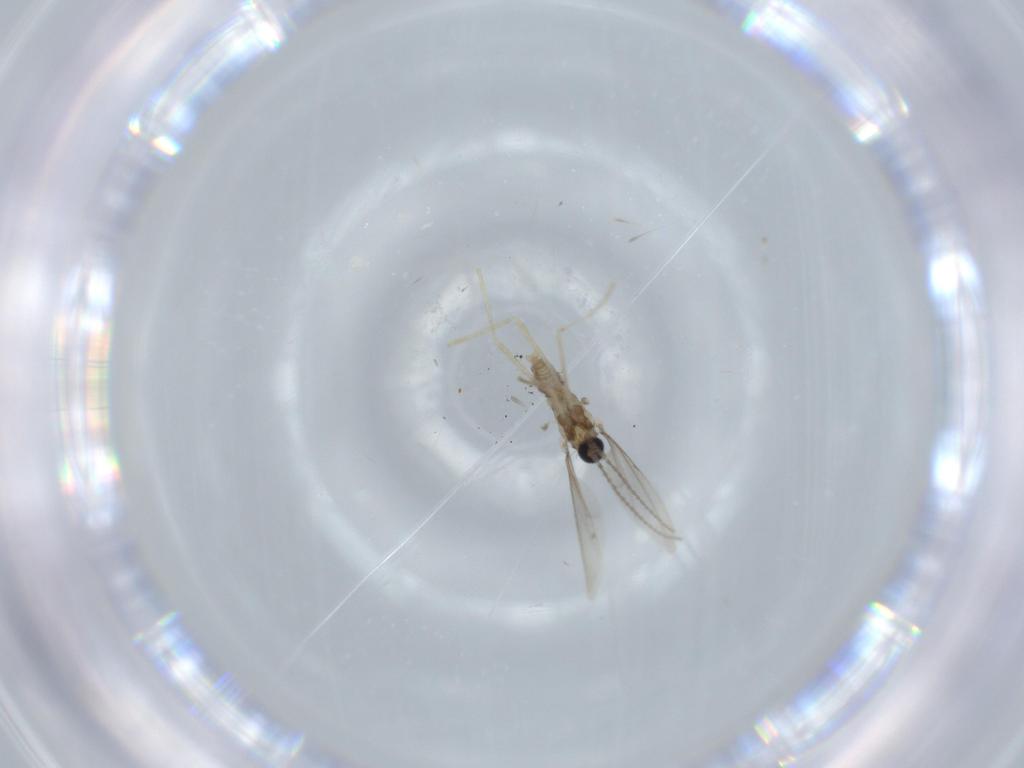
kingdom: Animalia
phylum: Arthropoda
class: Insecta
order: Diptera
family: Cecidomyiidae
